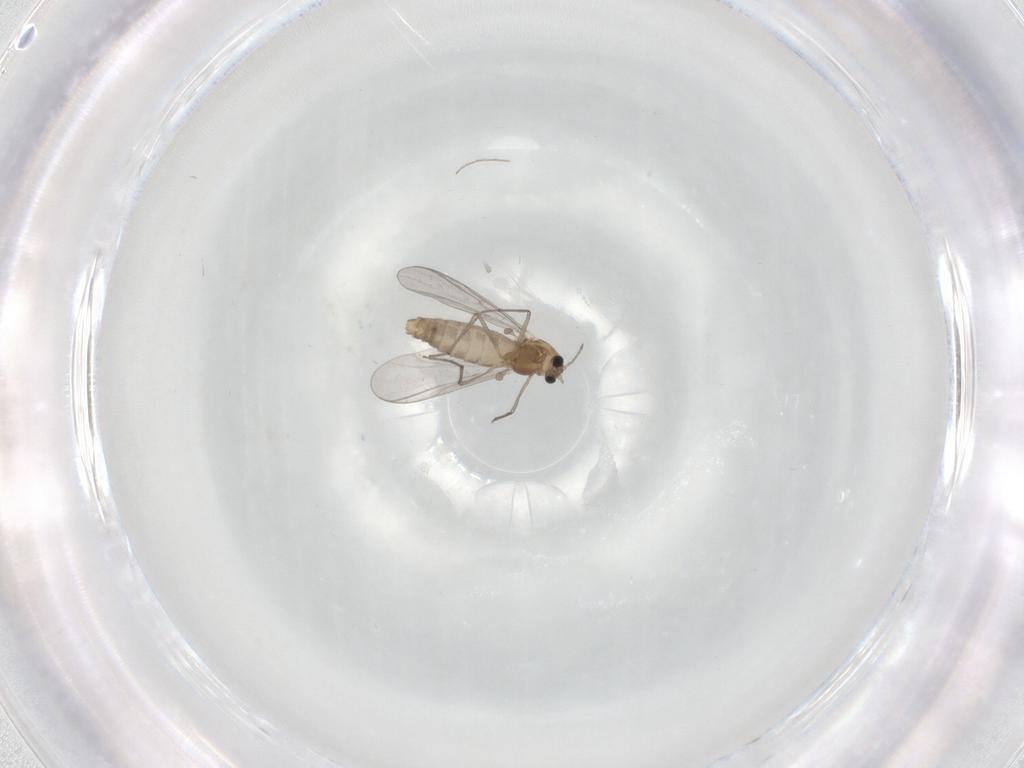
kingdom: Animalia
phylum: Arthropoda
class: Insecta
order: Diptera
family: Chironomidae
